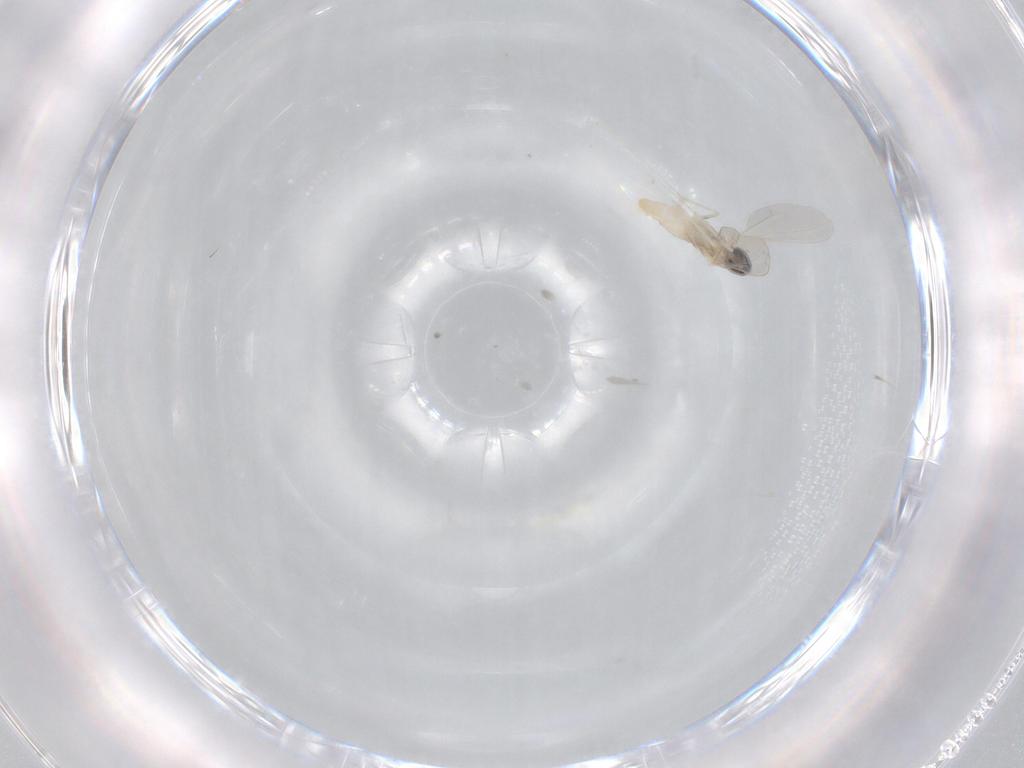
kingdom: Animalia
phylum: Arthropoda
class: Insecta
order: Diptera
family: Cecidomyiidae
